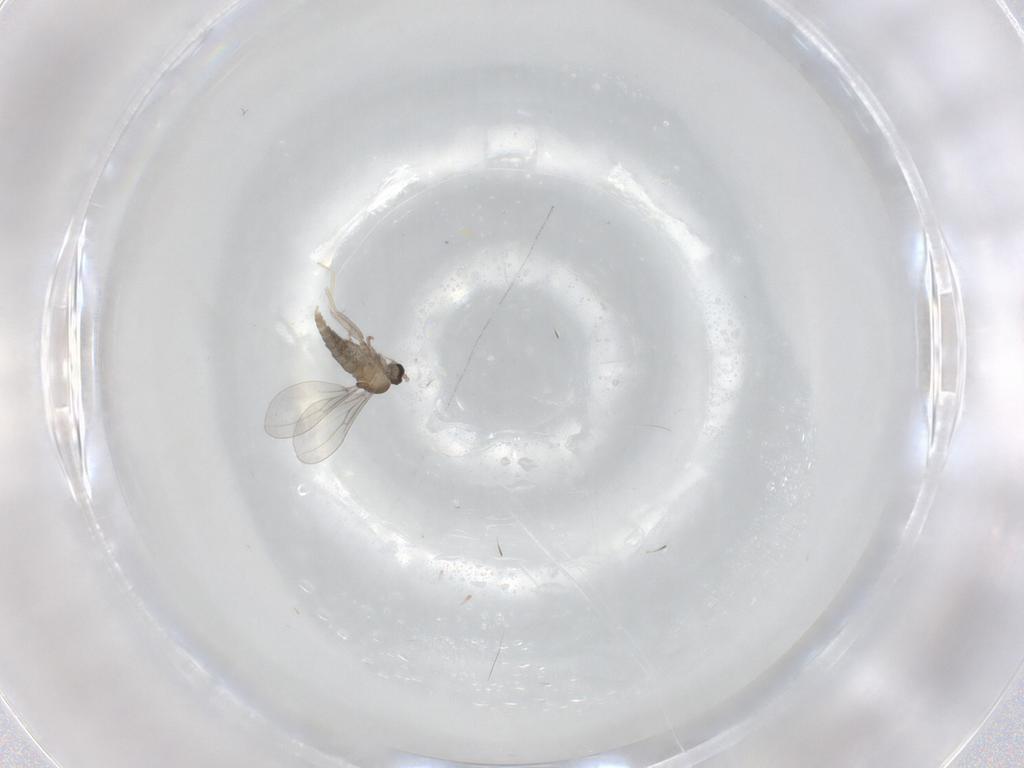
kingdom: Animalia
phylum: Arthropoda
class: Insecta
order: Diptera
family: Cecidomyiidae
